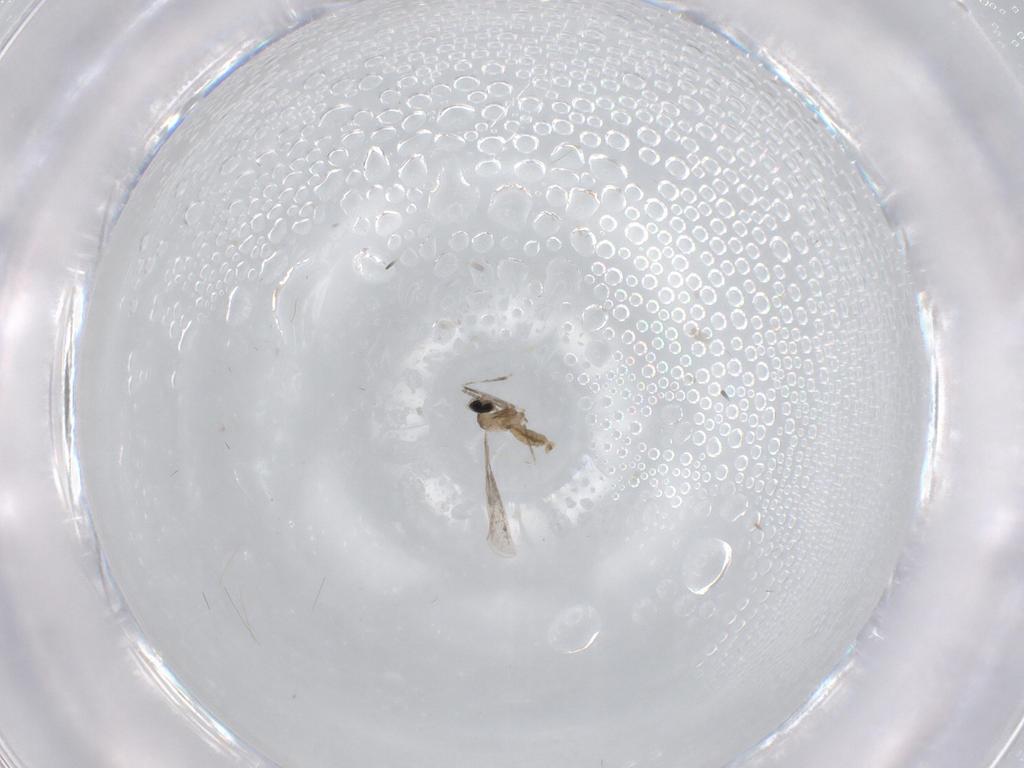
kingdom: Animalia
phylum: Arthropoda
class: Insecta
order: Diptera
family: Cecidomyiidae
